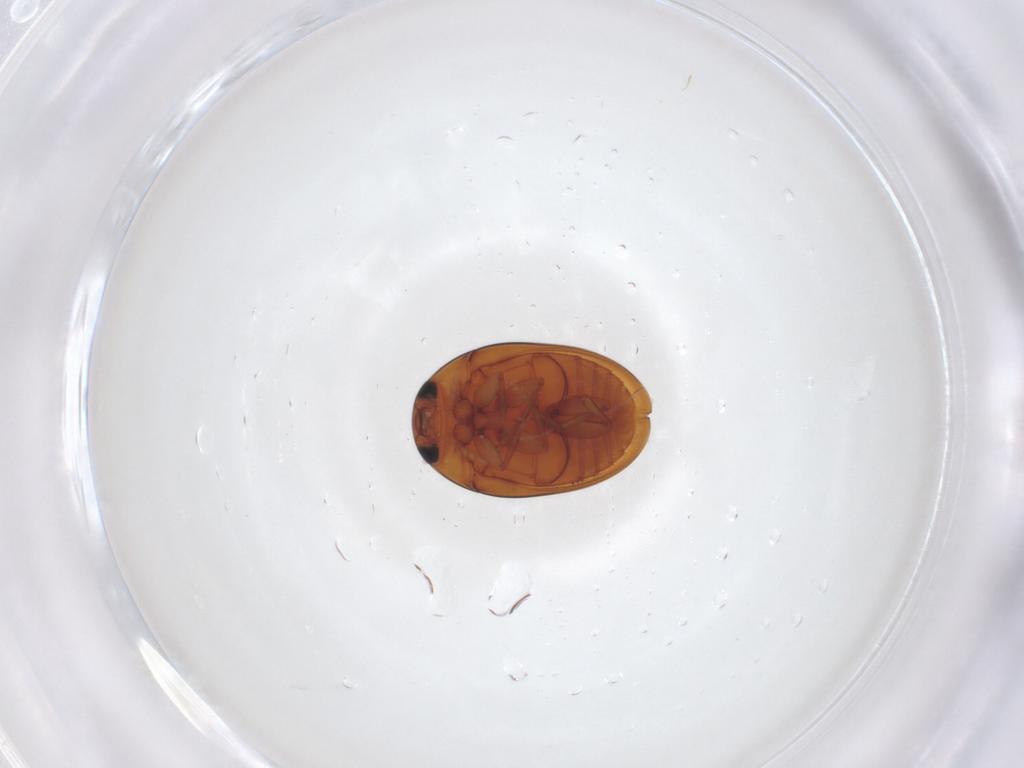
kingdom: Animalia
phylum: Arthropoda
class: Insecta
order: Coleoptera
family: Phalacridae
